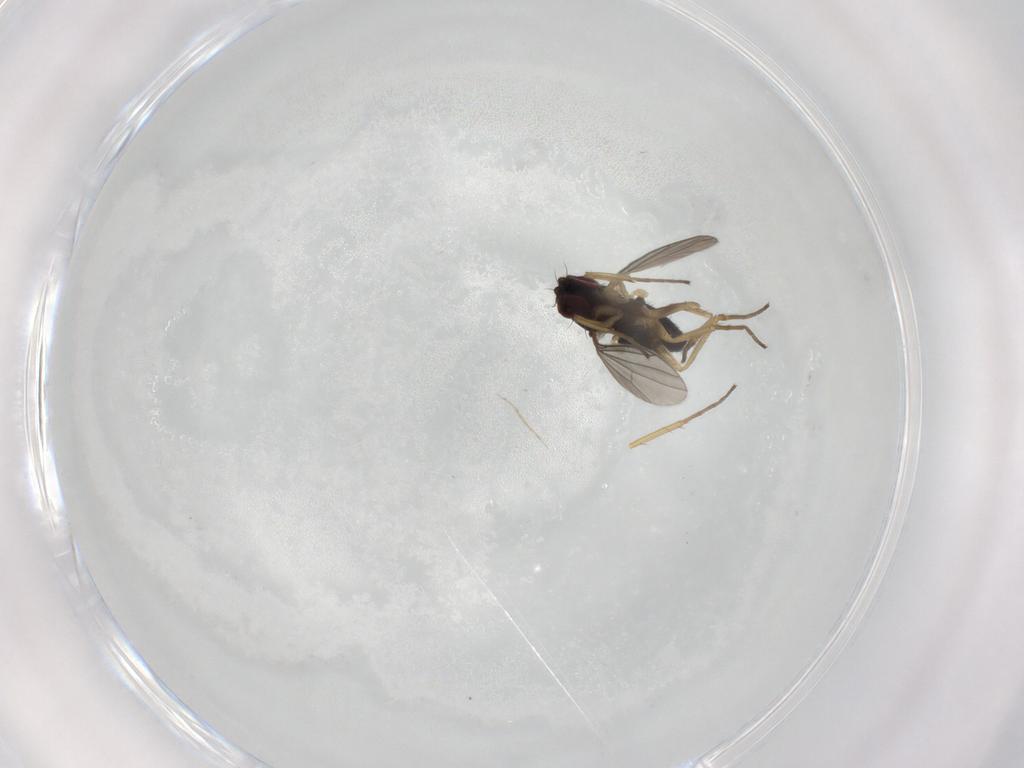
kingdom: Animalia
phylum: Arthropoda
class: Insecta
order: Diptera
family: Dolichopodidae
